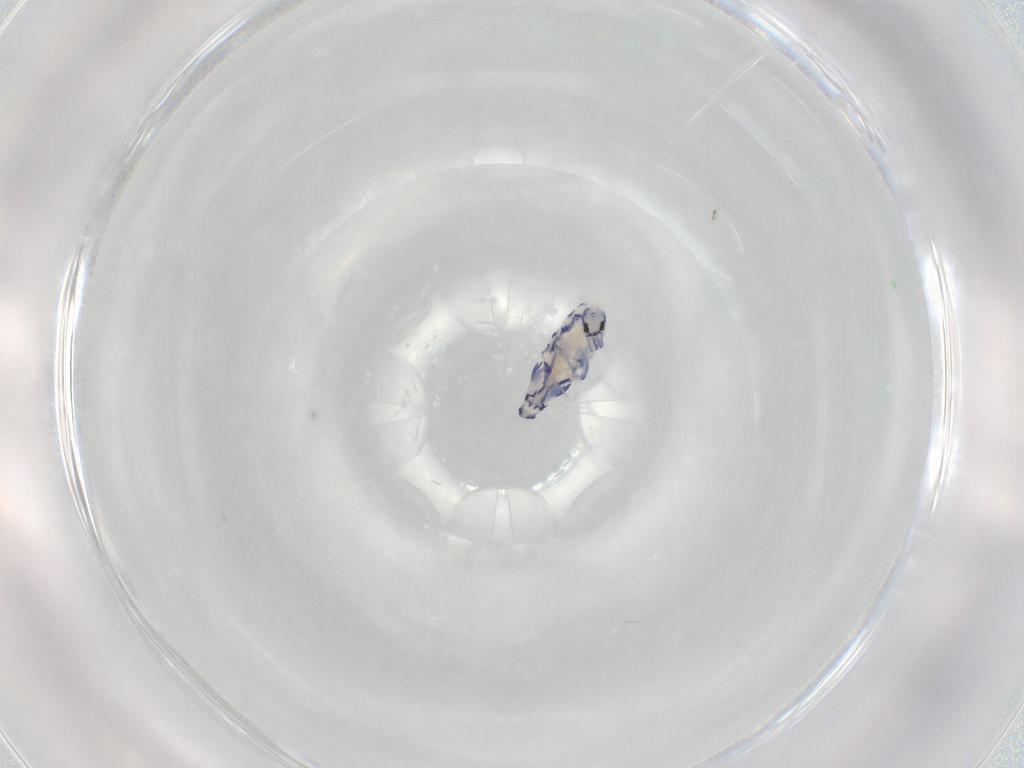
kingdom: Animalia
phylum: Arthropoda
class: Collembola
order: Entomobryomorpha
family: Entomobryidae
